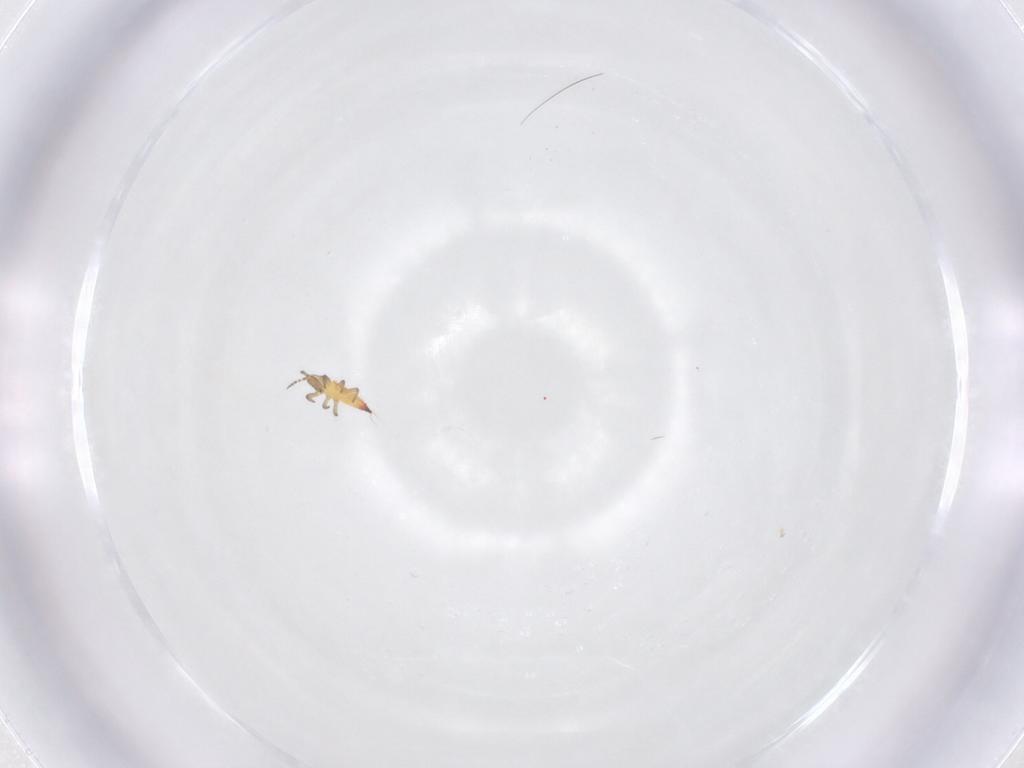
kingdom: Animalia
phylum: Arthropoda
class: Insecta
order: Thysanoptera
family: Phlaeothripidae
